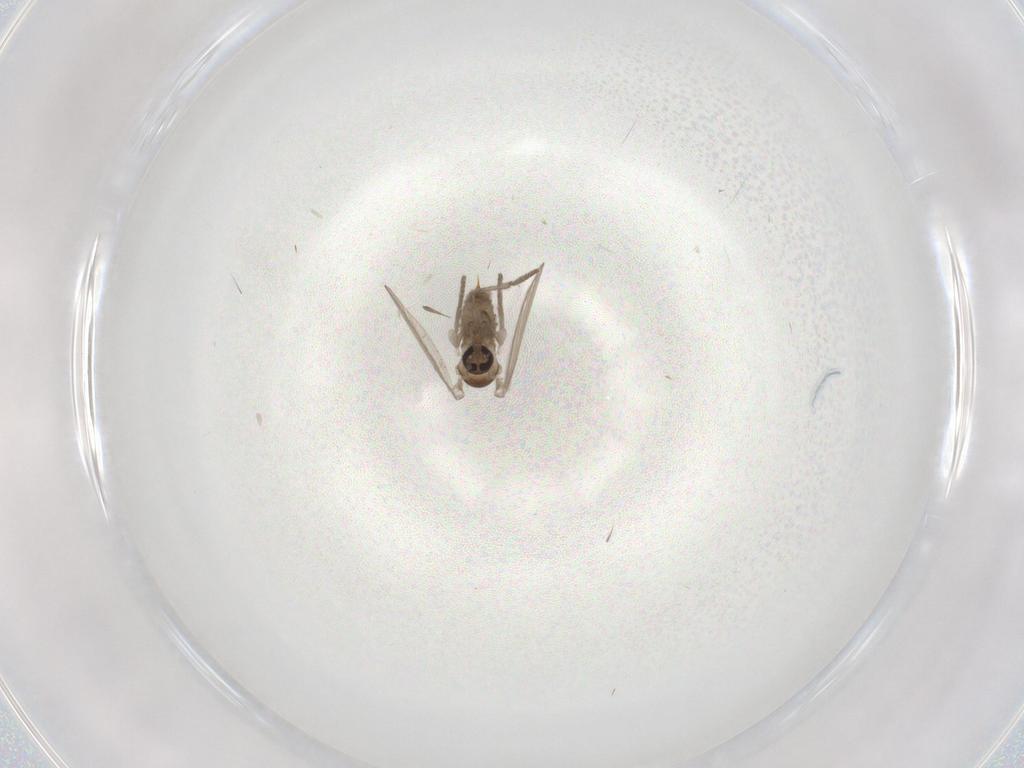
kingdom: Animalia
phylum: Arthropoda
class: Insecta
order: Diptera
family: Psychodidae
